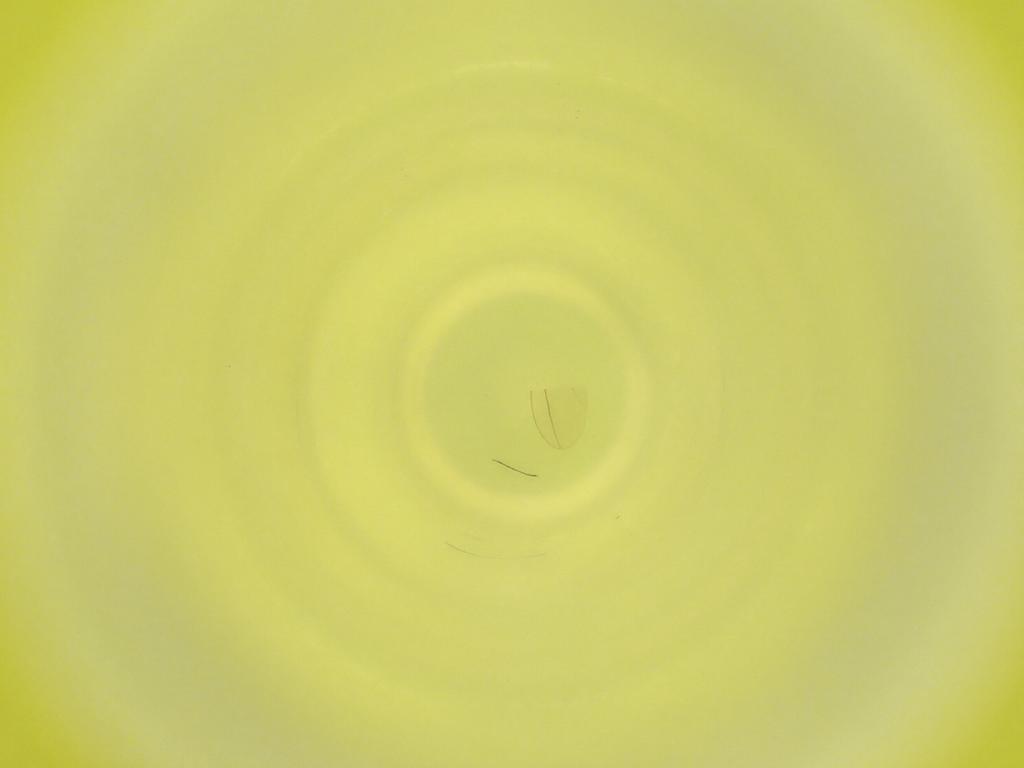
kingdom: Animalia
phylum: Arthropoda
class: Insecta
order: Diptera
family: Cecidomyiidae
